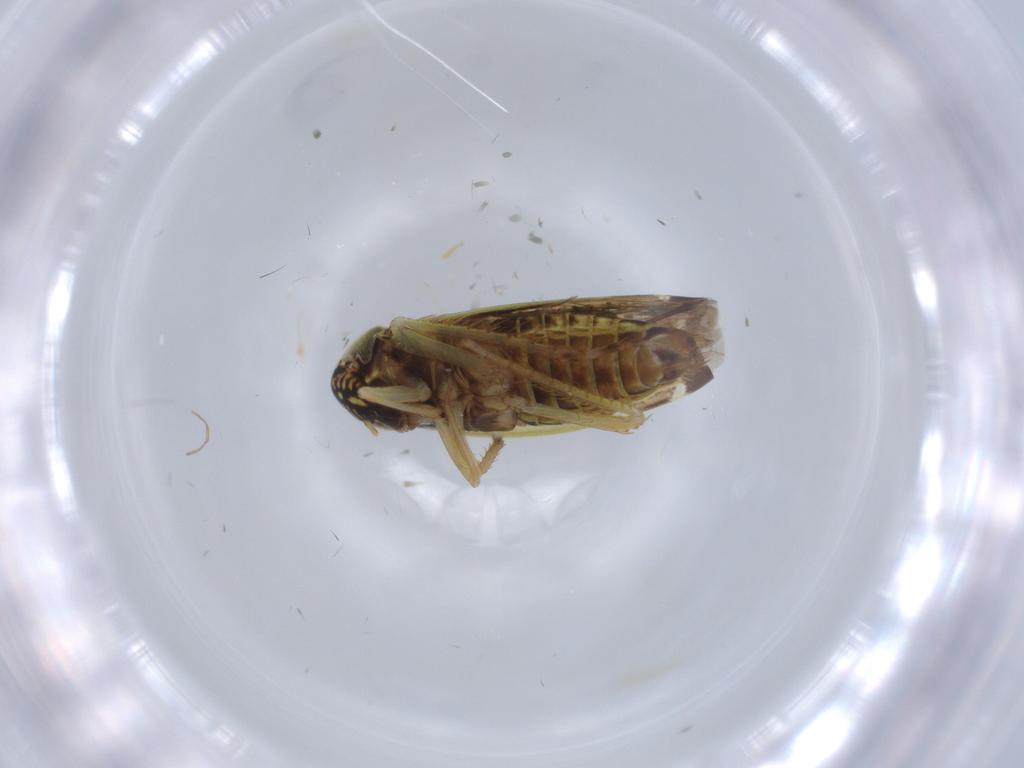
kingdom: Animalia
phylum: Arthropoda
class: Insecta
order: Hemiptera
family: Cicadellidae
